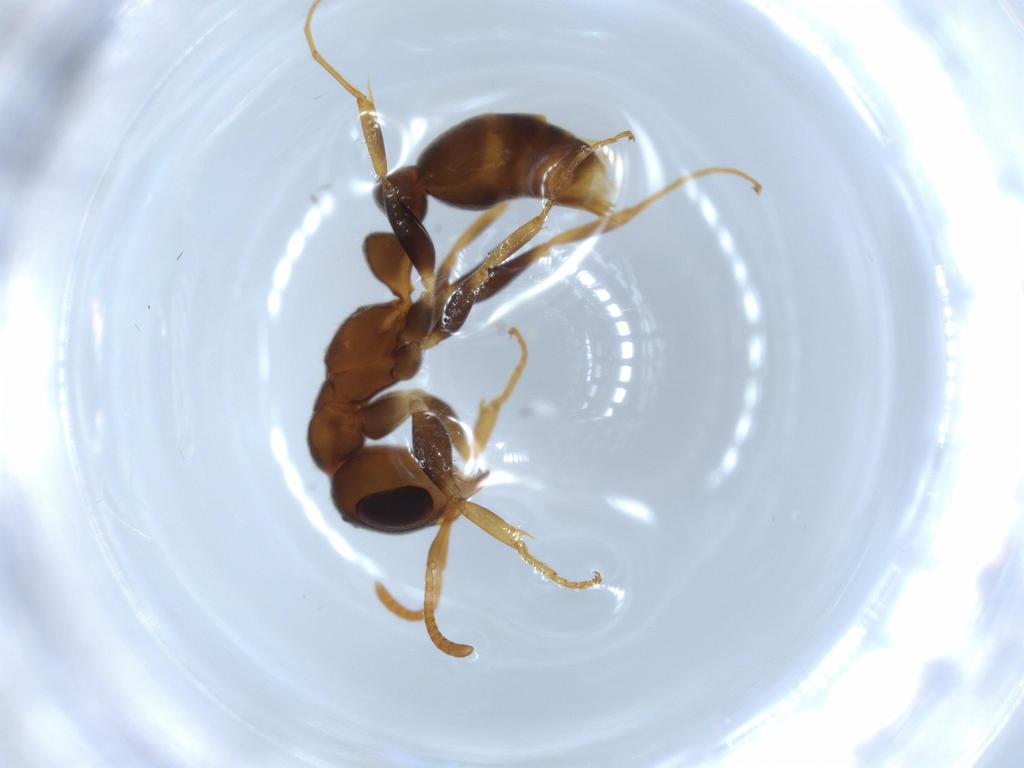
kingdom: Animalia
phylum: Arthropoda
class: Insecta
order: Hymenoptera
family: Formicidae
